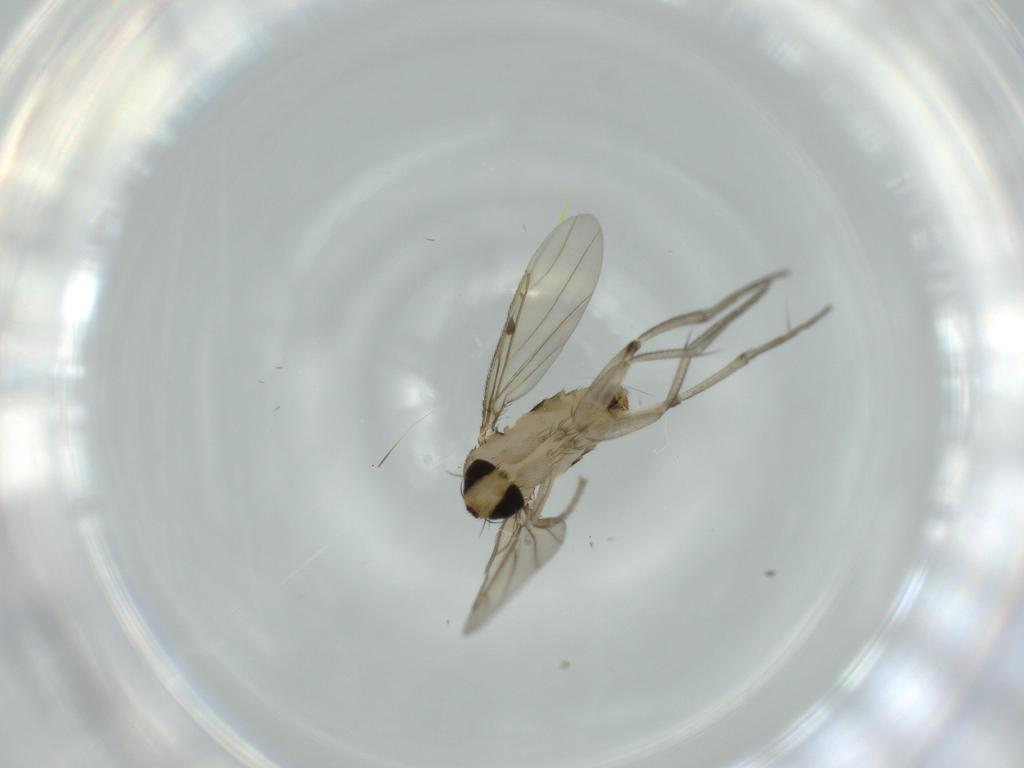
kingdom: Animalia
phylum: Arthropoda
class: Insecta
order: Diptera
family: Phoridae
